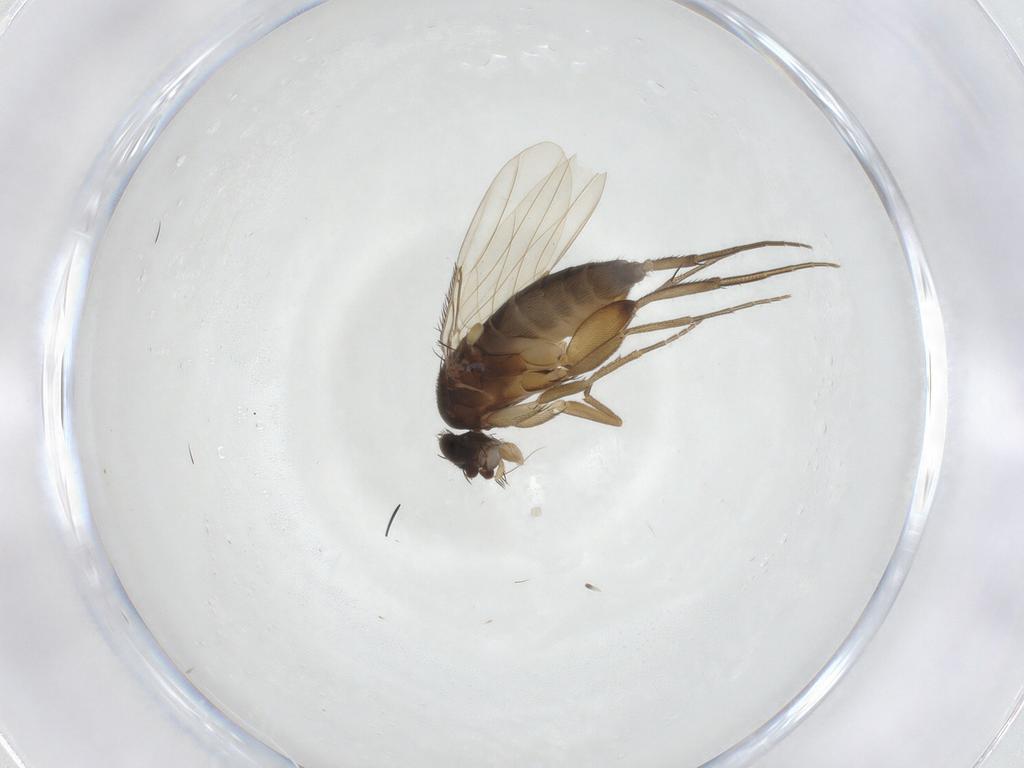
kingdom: Animalia
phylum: Arthropoda
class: Insecta
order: Diptera
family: Phoridae
